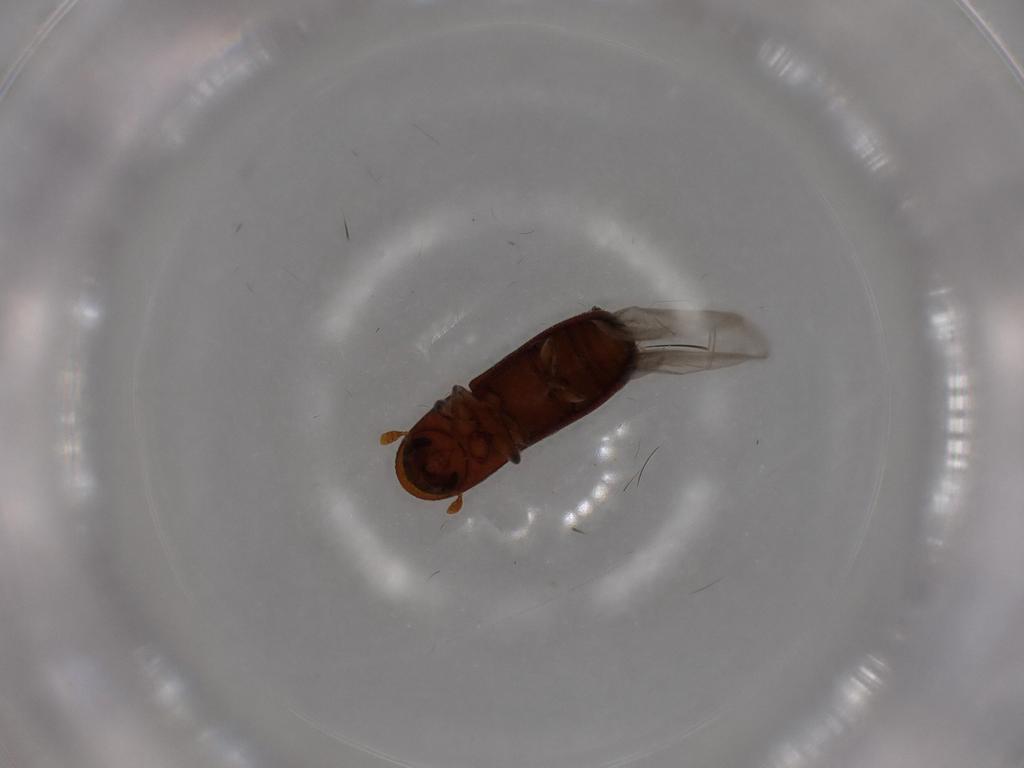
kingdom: Animalia
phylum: Arthropoda
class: Insecta
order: Coleoptera
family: Curculionidae
